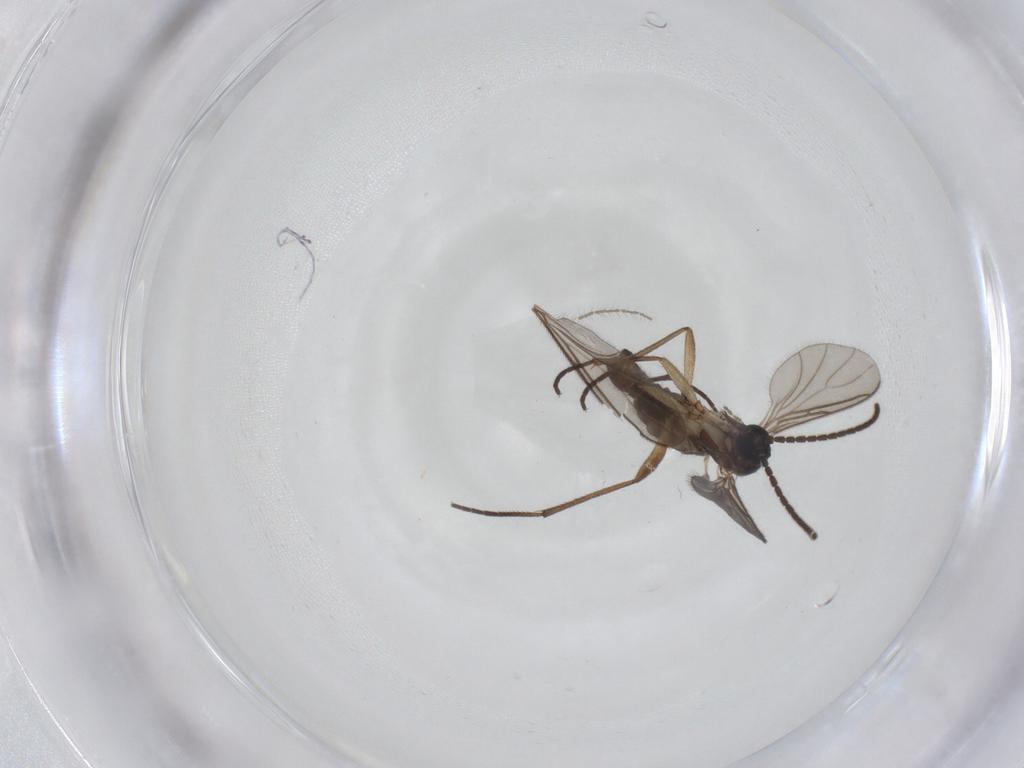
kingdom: Animalia
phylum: Arthropoda
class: Insecta
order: Diptera
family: Sciaridae
